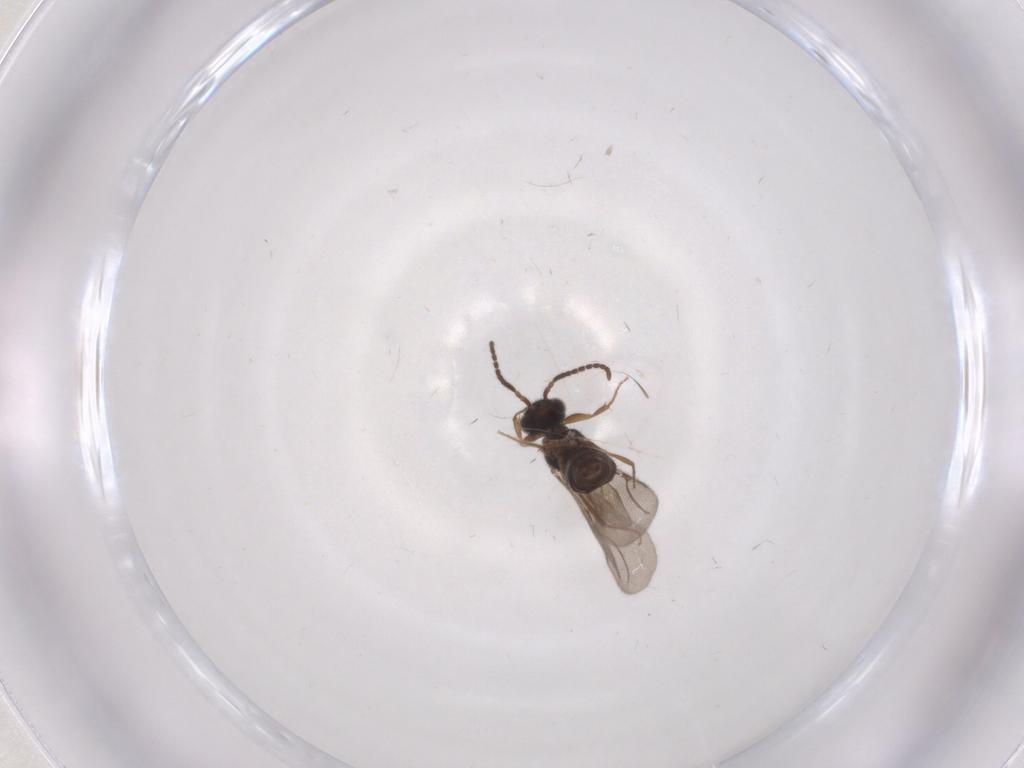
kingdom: Animalia
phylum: Arthropoda
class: Insecta
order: Hymenoptera
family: Bethylidae
